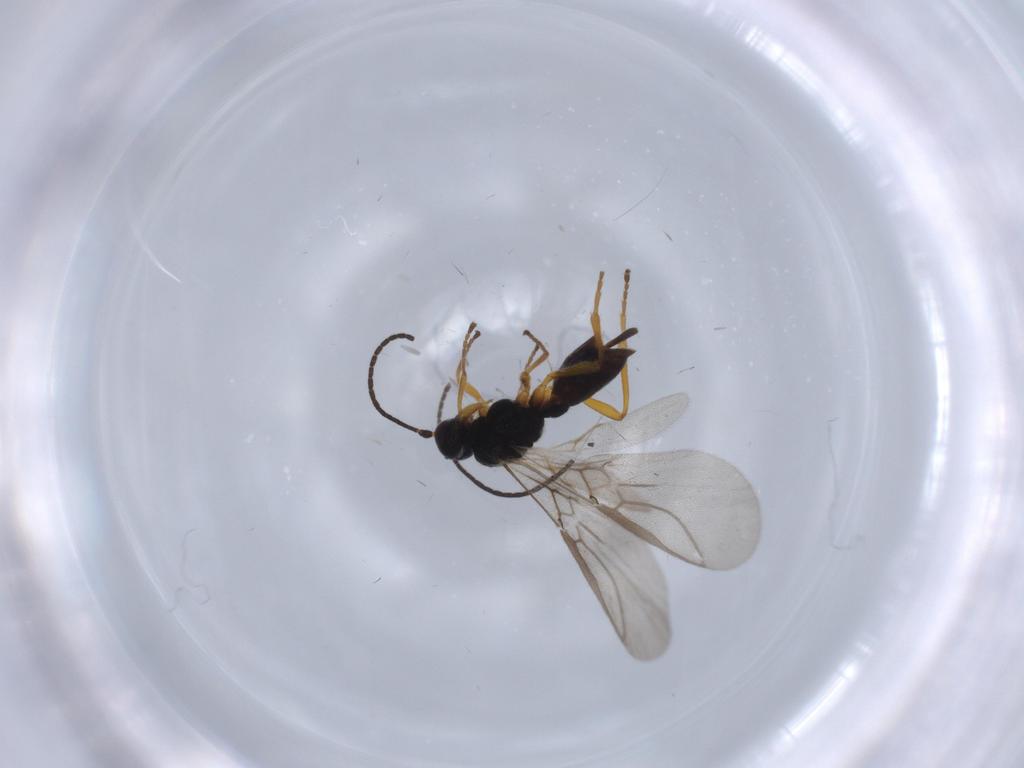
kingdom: Animalia
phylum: Arthropoda
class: Insecta
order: Hymenoptera
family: Braconidae
